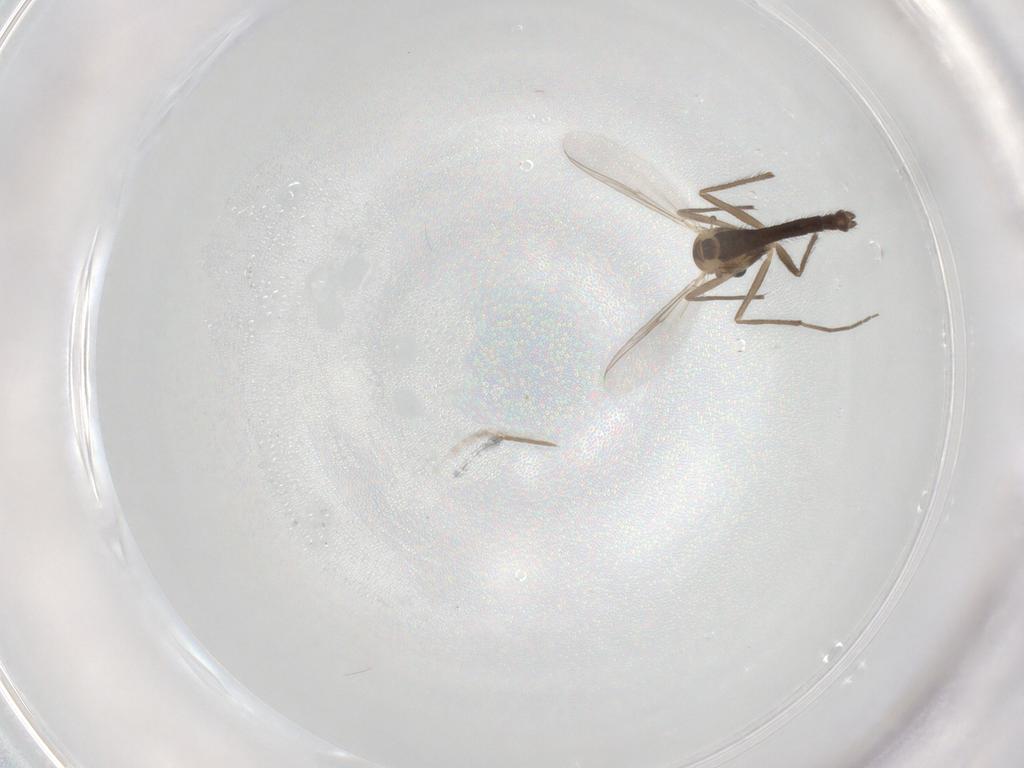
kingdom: Animalia
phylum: Arthropoda
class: Insecta
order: Diptera
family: Chironomidae
